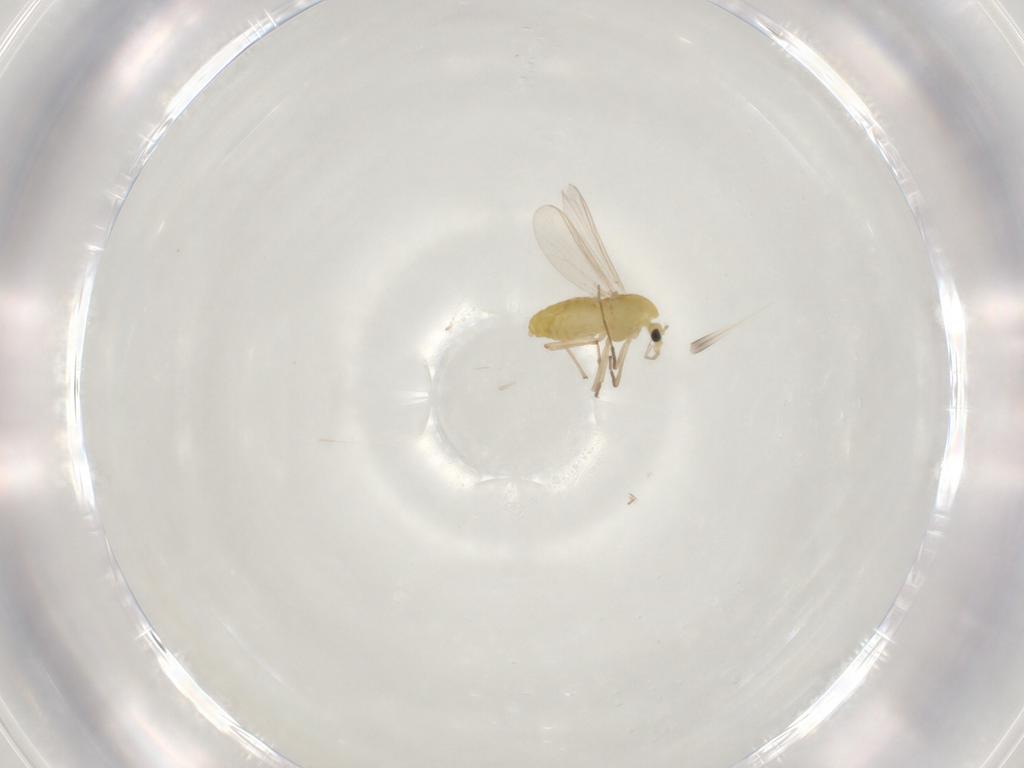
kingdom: Animalia
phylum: Arthropoda
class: Insecta
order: Diptera
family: Chironomidae
